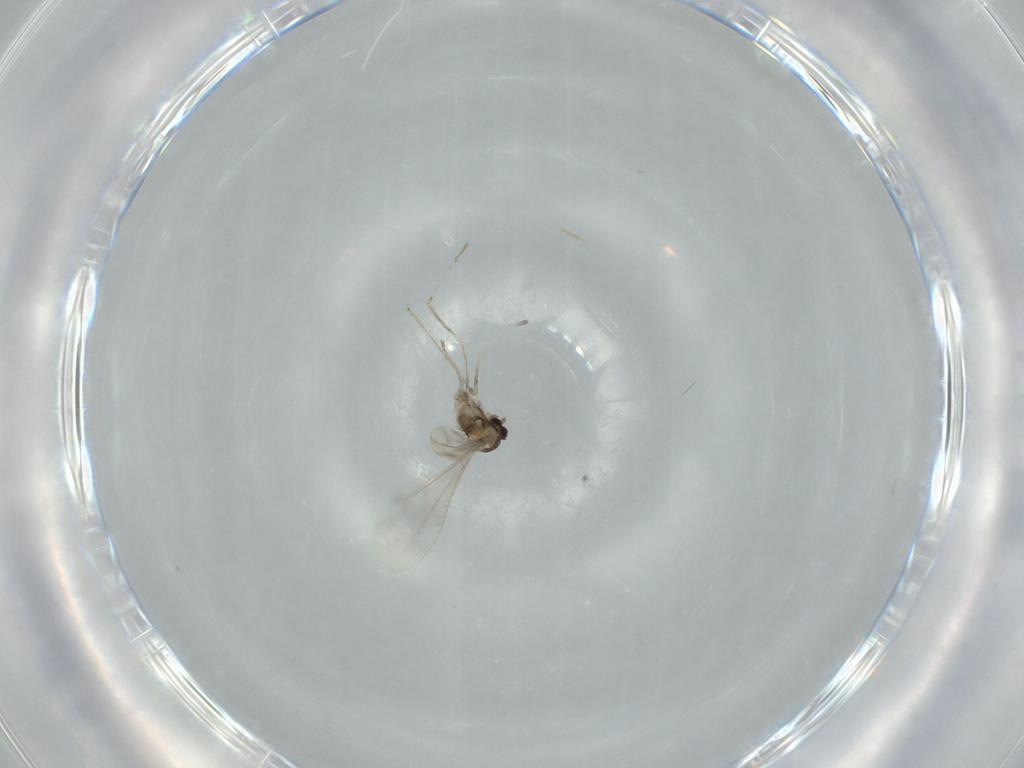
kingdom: Animalia
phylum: Arthropoda
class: Insecta
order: Diptera
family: Cecidomyiidae
